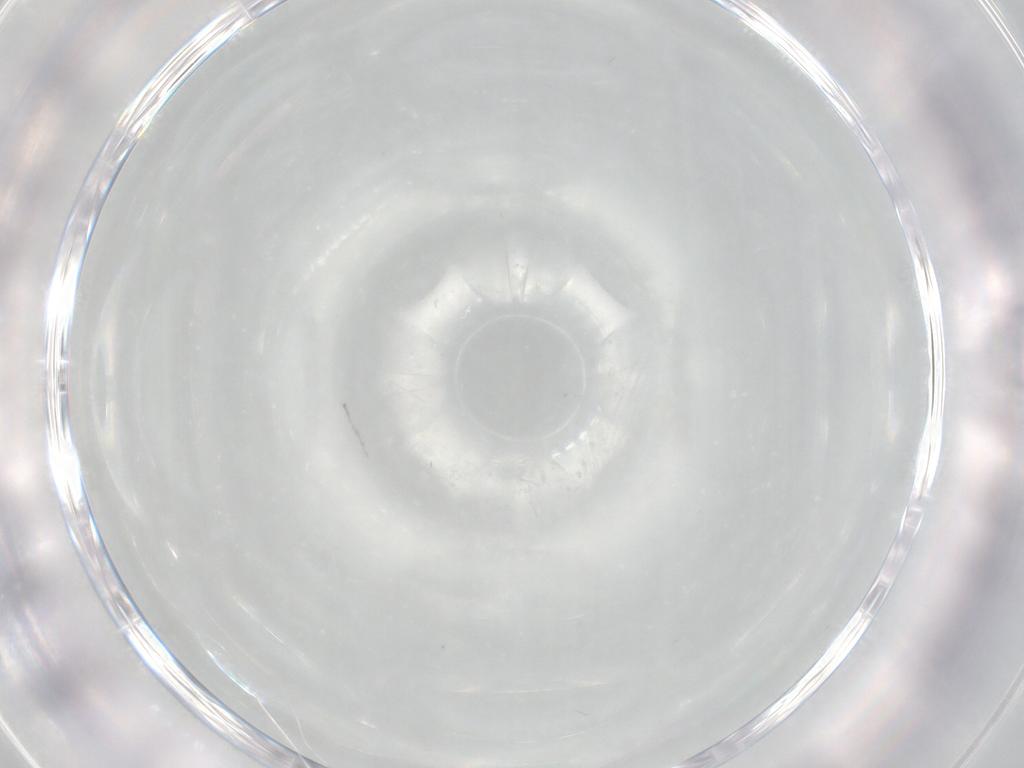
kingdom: Animalia
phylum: Arthropoda
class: Insecta
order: Diptera
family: Cecidomyiidae
